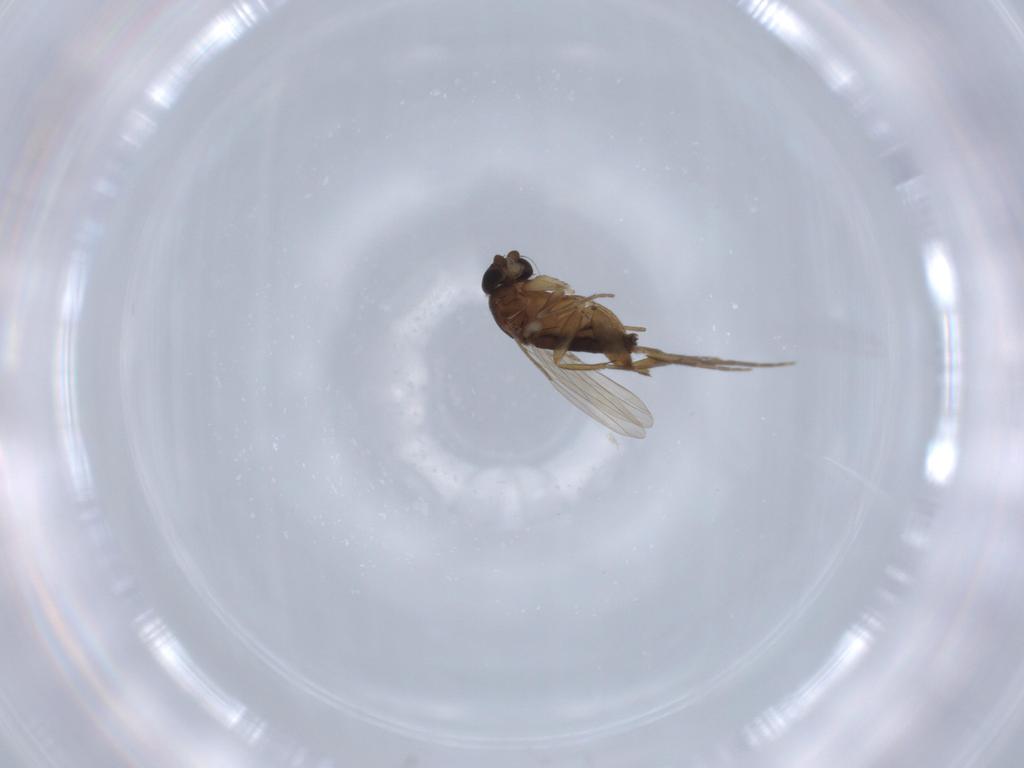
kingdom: Animalia
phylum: Arthropoda
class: Insecta
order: Diptera
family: Phoridae
